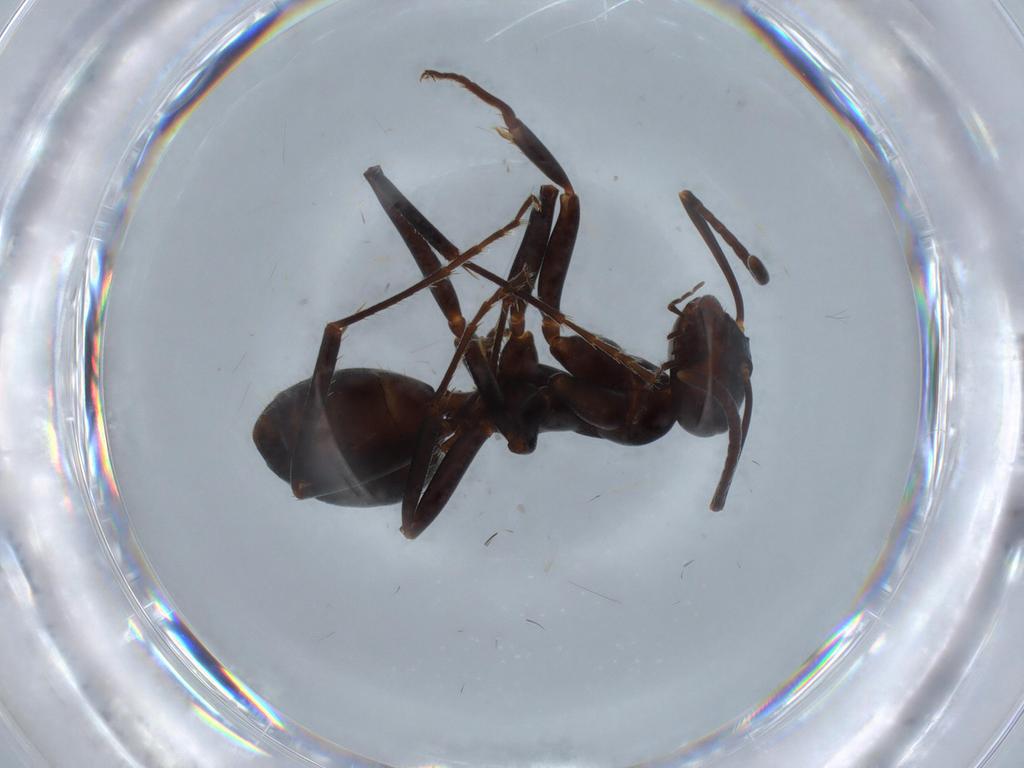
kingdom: Animalia
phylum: Arthropoda
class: Insecta
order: Hymenoptera
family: Formicidae
